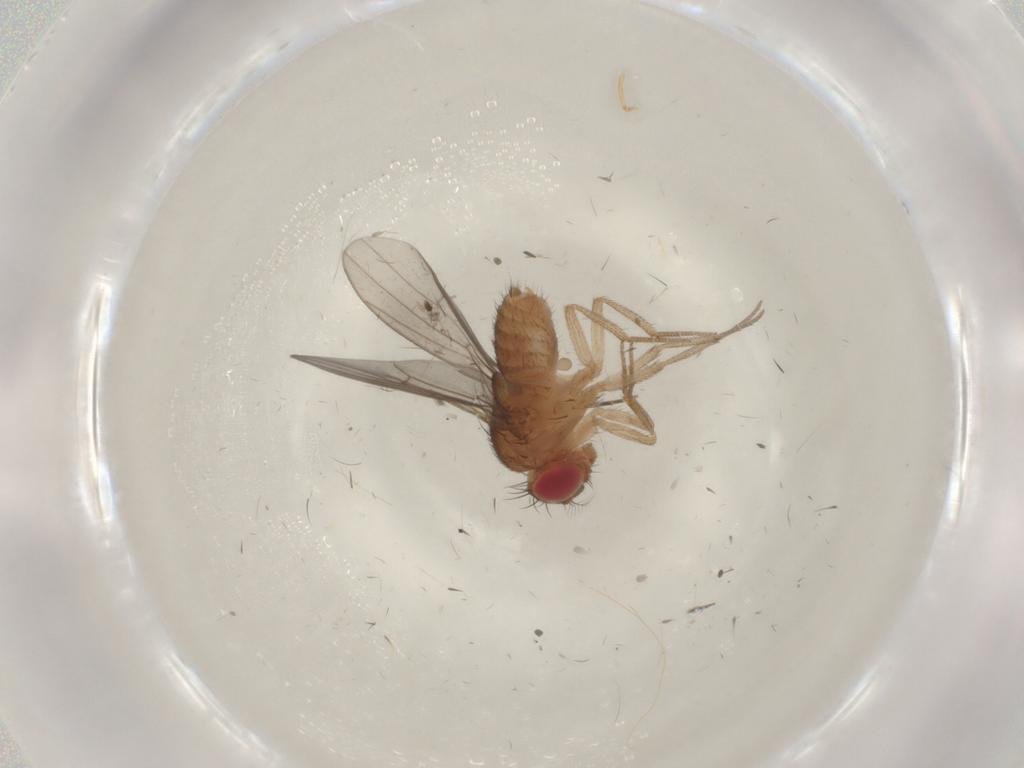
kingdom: Animalia
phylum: Arthropoda
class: Insecta
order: Diptera
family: Drosophilidae
